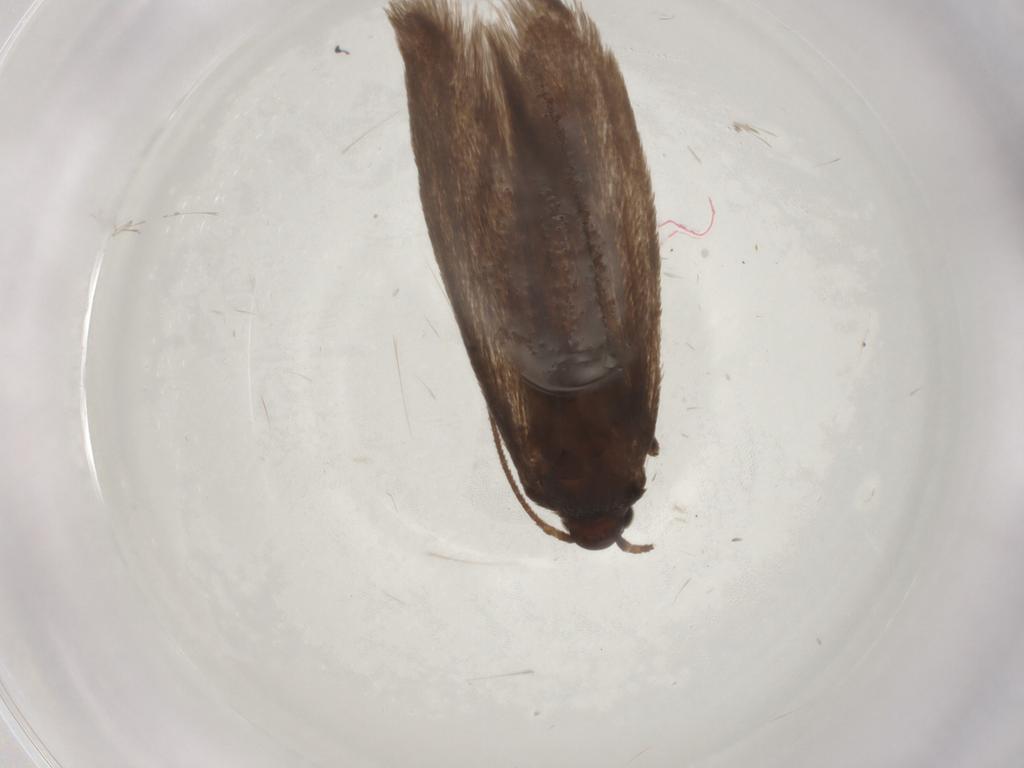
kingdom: Animalia
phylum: Arthropoda
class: Insecta
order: Lepidoptera
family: Limacodidae
